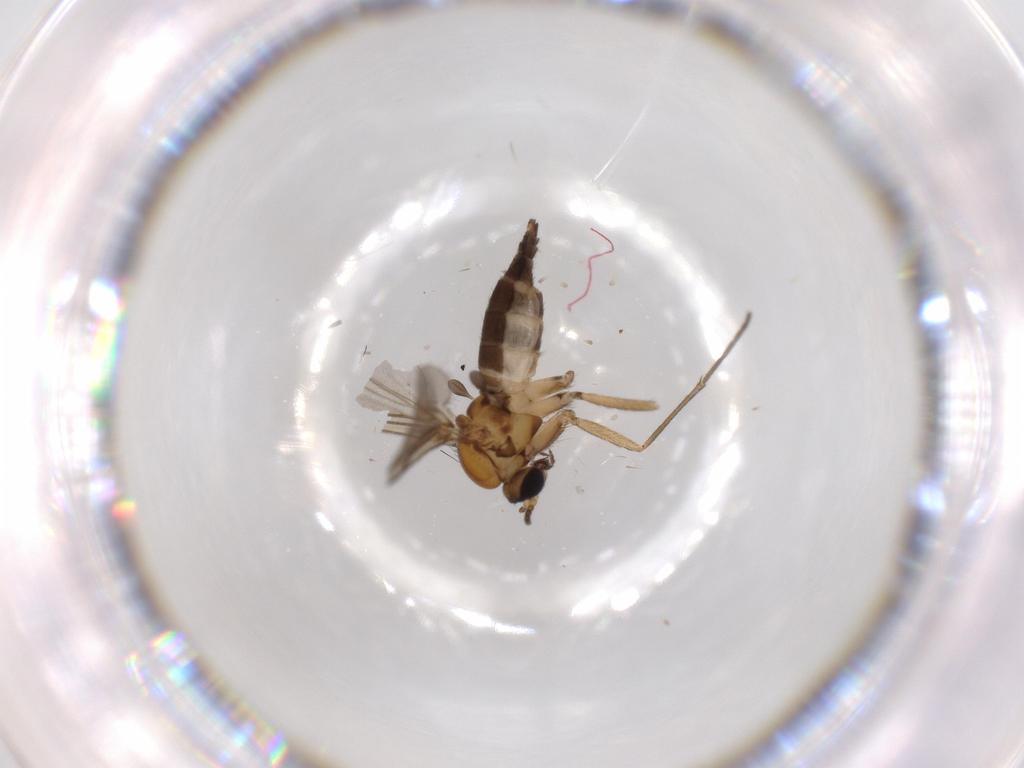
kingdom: Animalia
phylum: Arthropoda
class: Insecta
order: Diptera
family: Sciaridae
